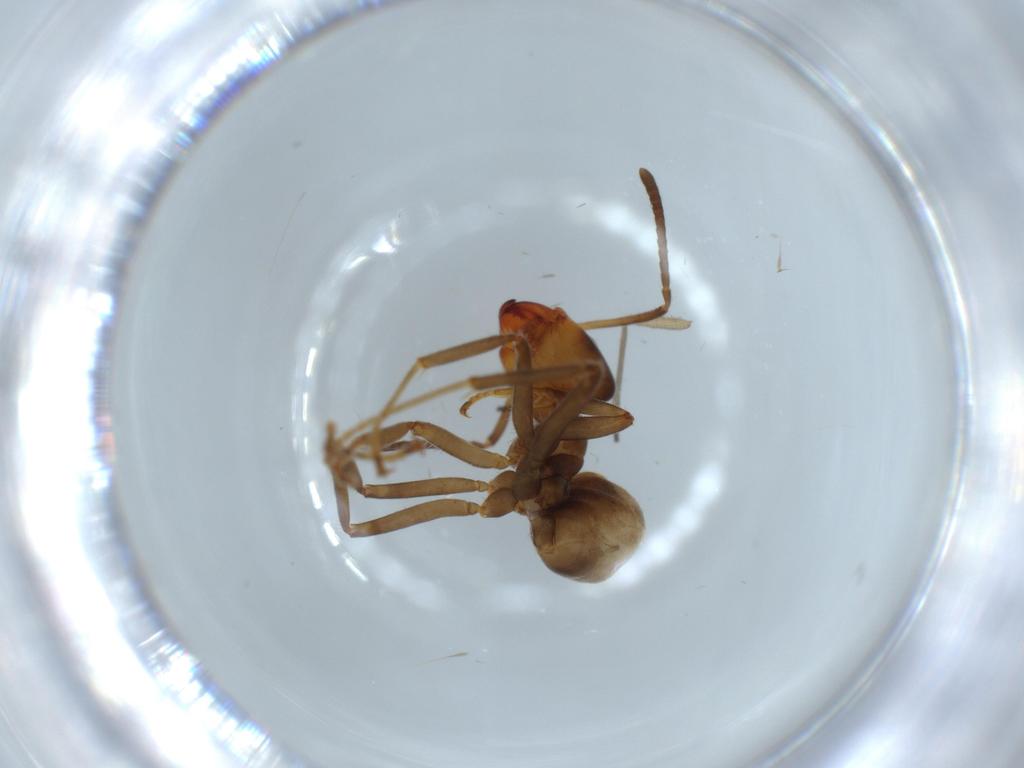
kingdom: Animalia
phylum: Arthropoda
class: Insecta
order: Hymenoptera
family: Formicidae
